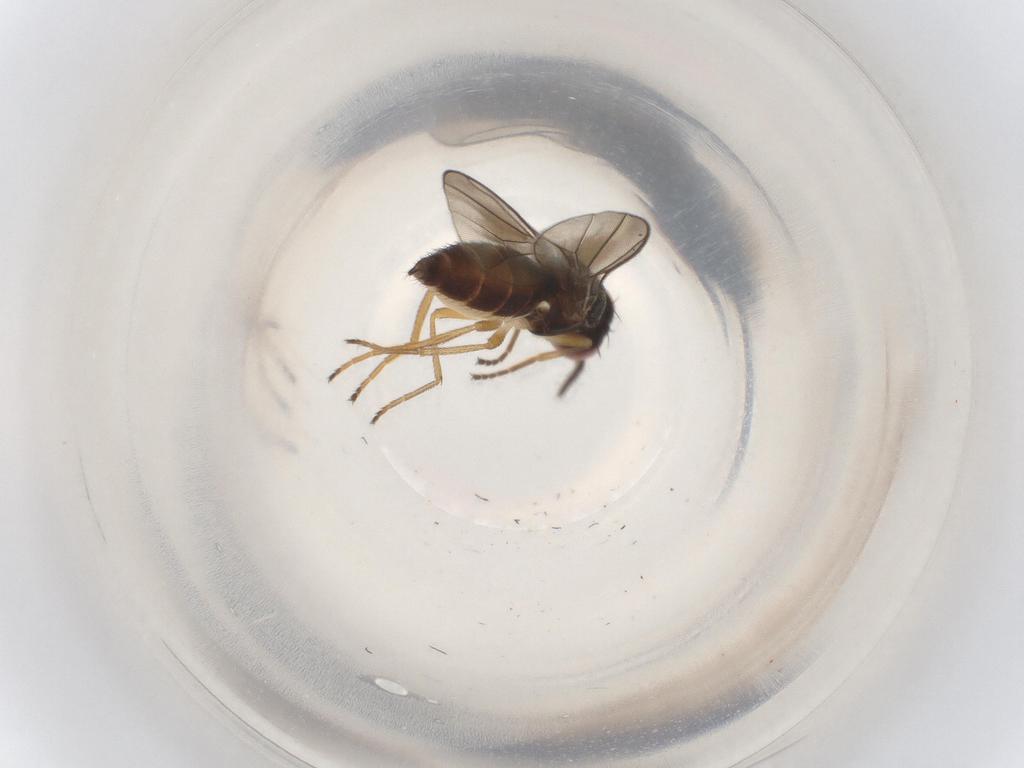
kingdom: Animalia
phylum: Arthropoda
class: Insecta
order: Diptera
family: Chloropidae
